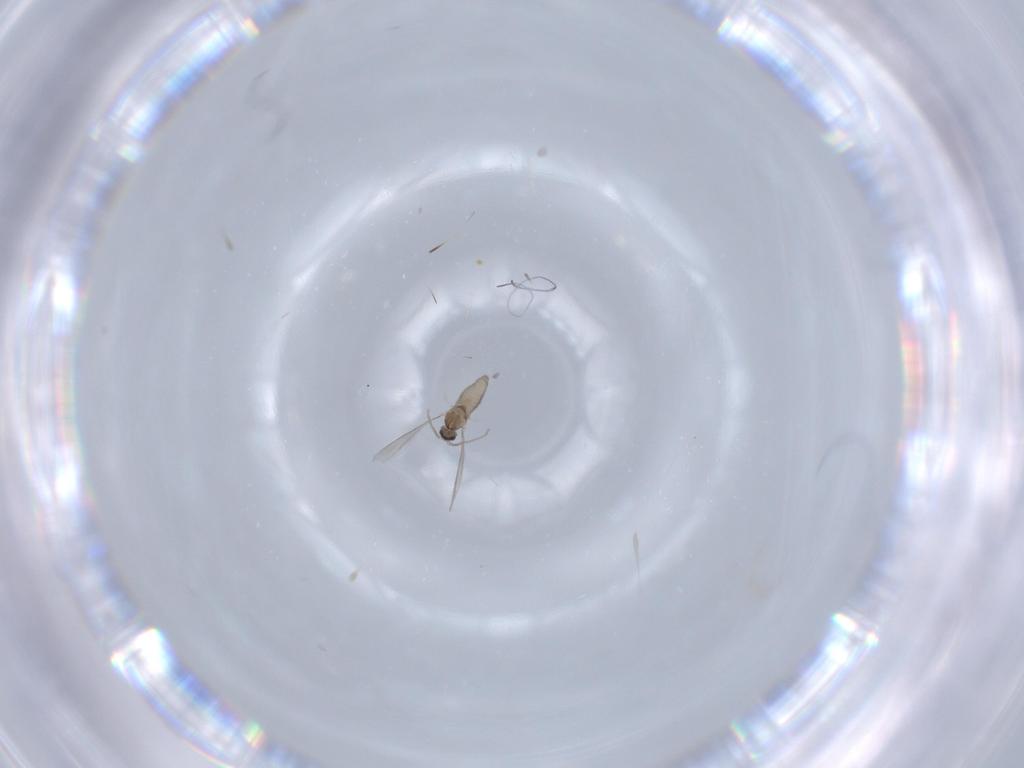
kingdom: Animalia
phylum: Arthropoda
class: Insecta
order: Diptera
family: Cecidomyiidae
